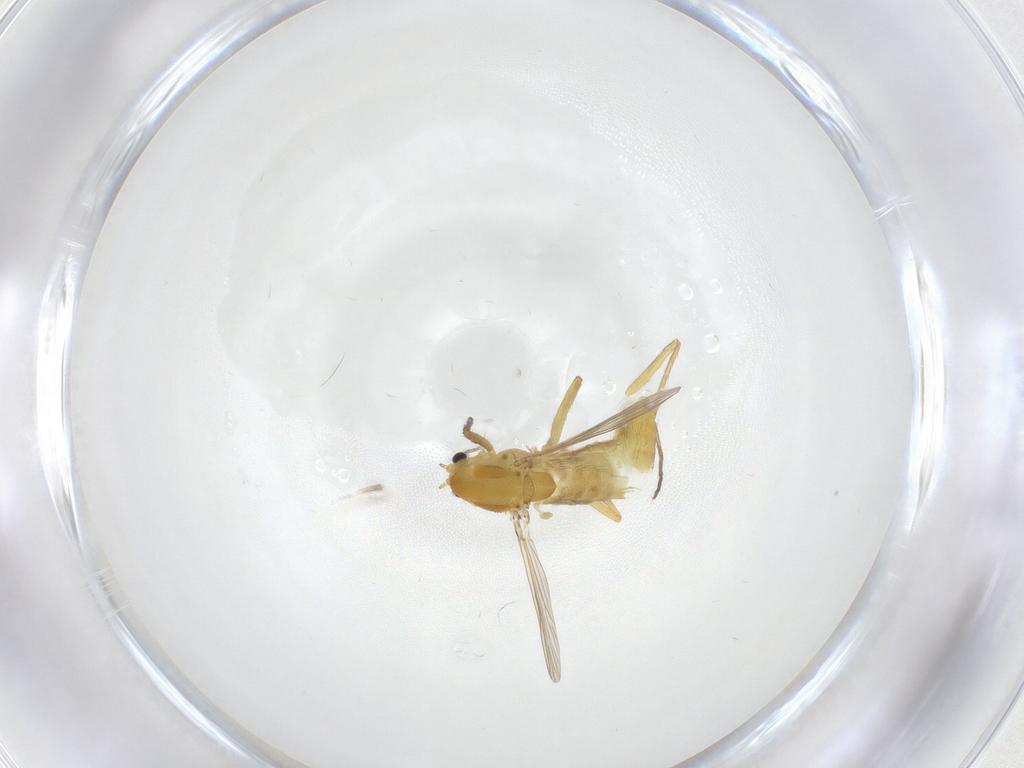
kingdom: Animalia
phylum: Arthropoda
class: Insecta
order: Diptera
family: Chironomidae
